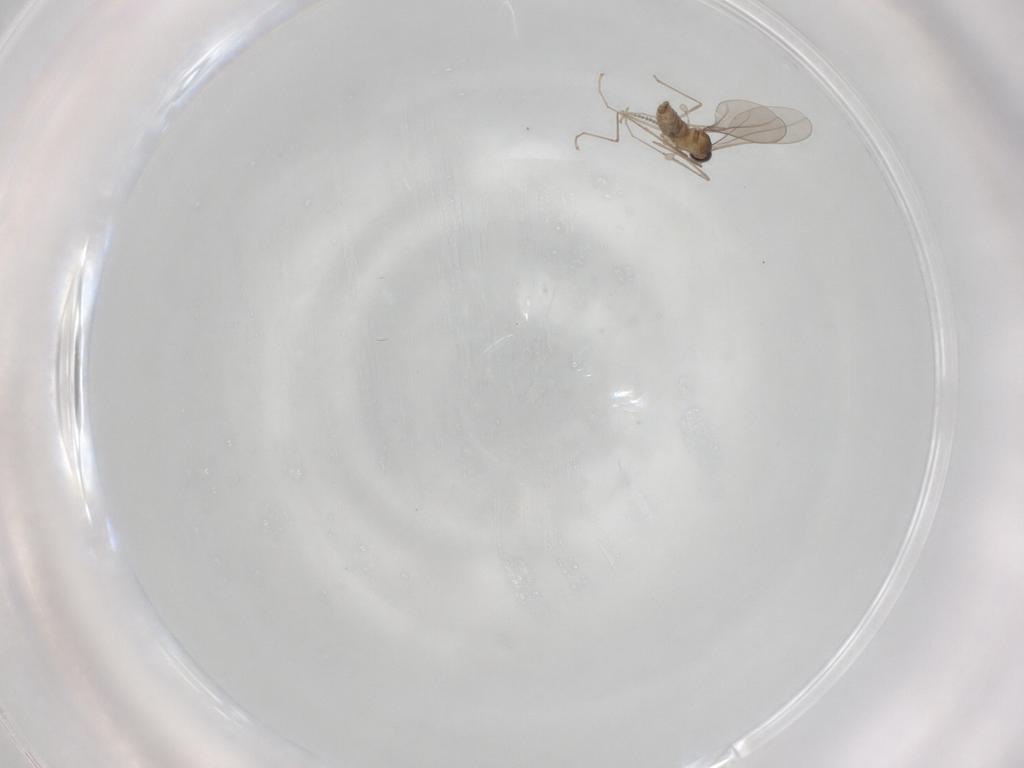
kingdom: Animalia
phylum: Arthropoda
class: Insecta
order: Diptera
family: Cecidomyiidae
